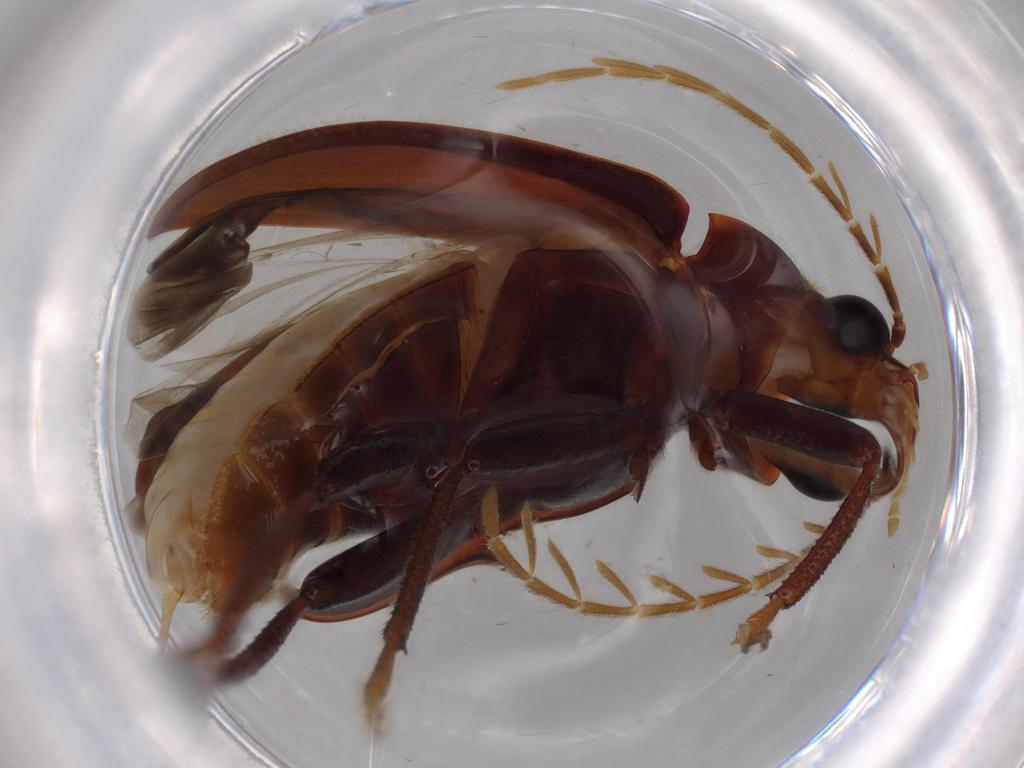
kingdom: Animalia
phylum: Arthropoda
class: Insecta
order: Coleoptera
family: Ptilodactylidae
